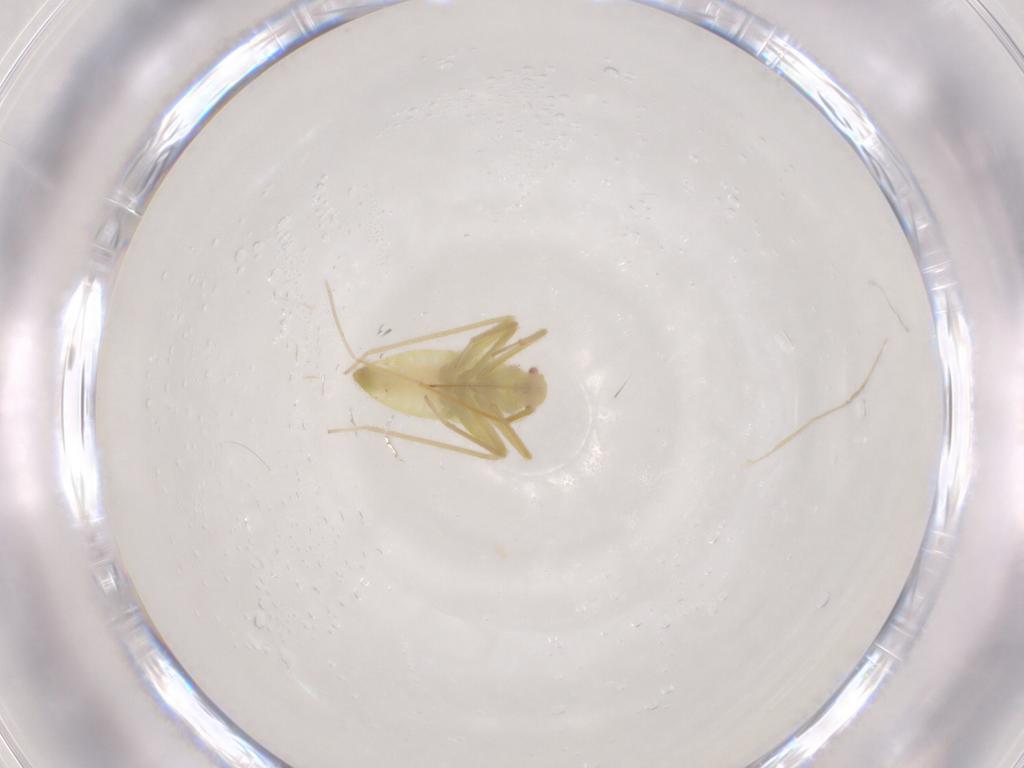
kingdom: Animalia
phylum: Arthropoda
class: Insecta
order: Hemiptera
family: Miridae
